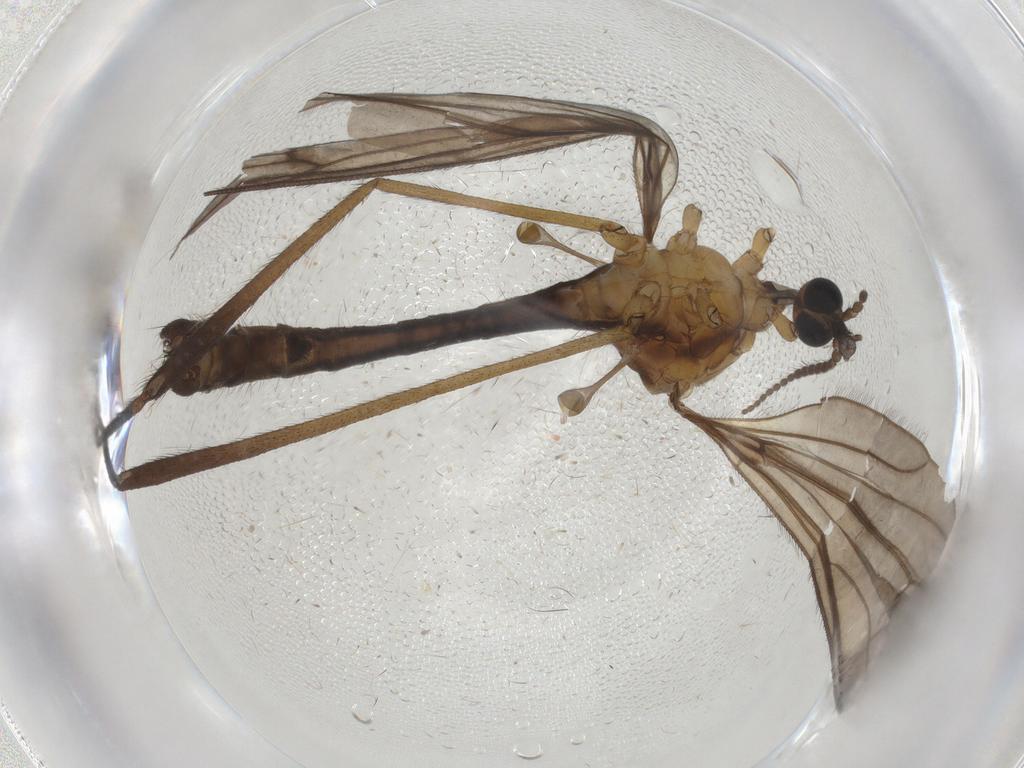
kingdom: Animalia
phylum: Arthropoda
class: Insecta
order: Diptera
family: Limoniidae
